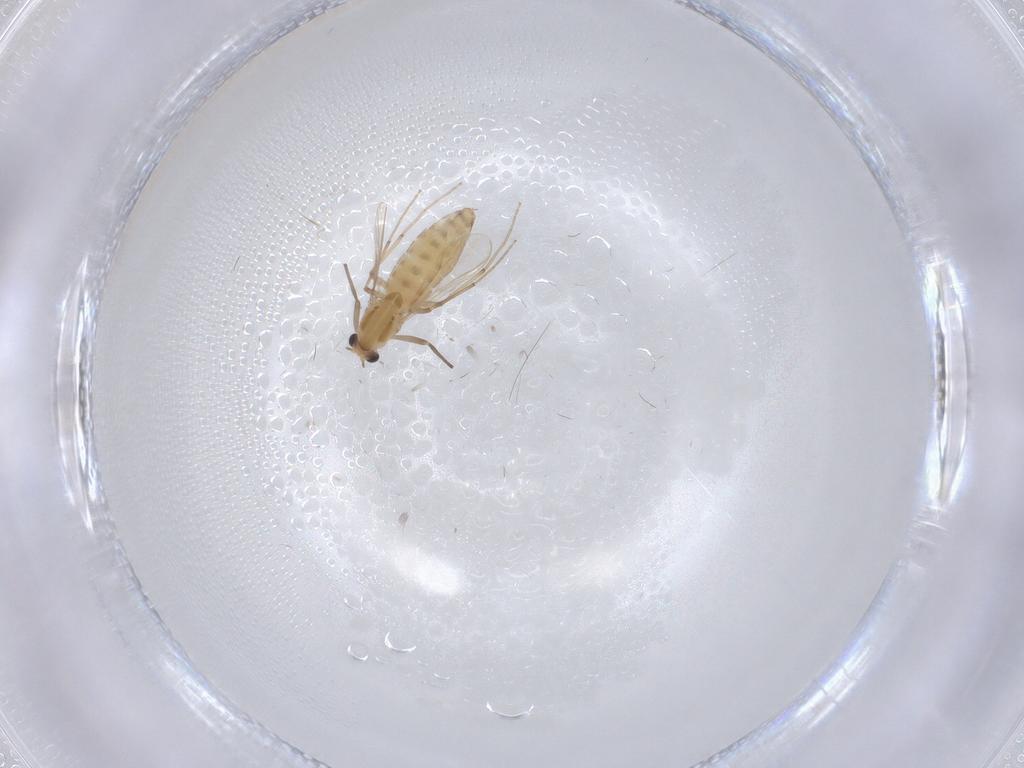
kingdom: Animalia
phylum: Arthropoda
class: Insecta
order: Diptera
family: Chironomidae
